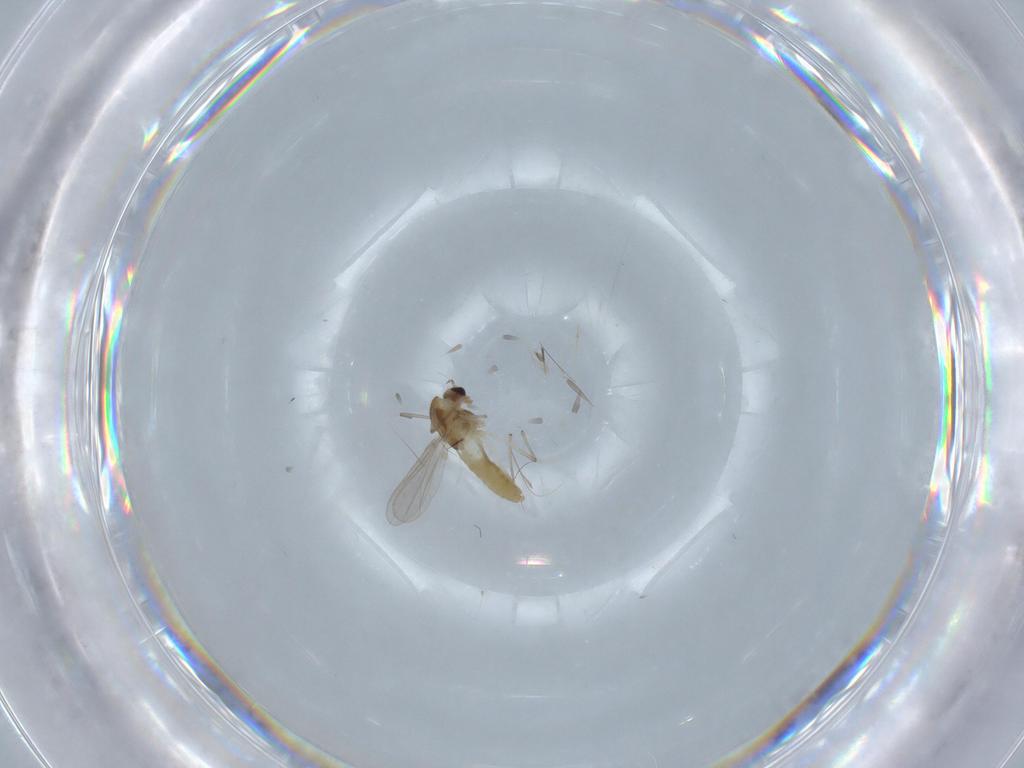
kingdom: Animalia
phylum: Arthropoda
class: Insecta
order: Diptera
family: Chironomidae
